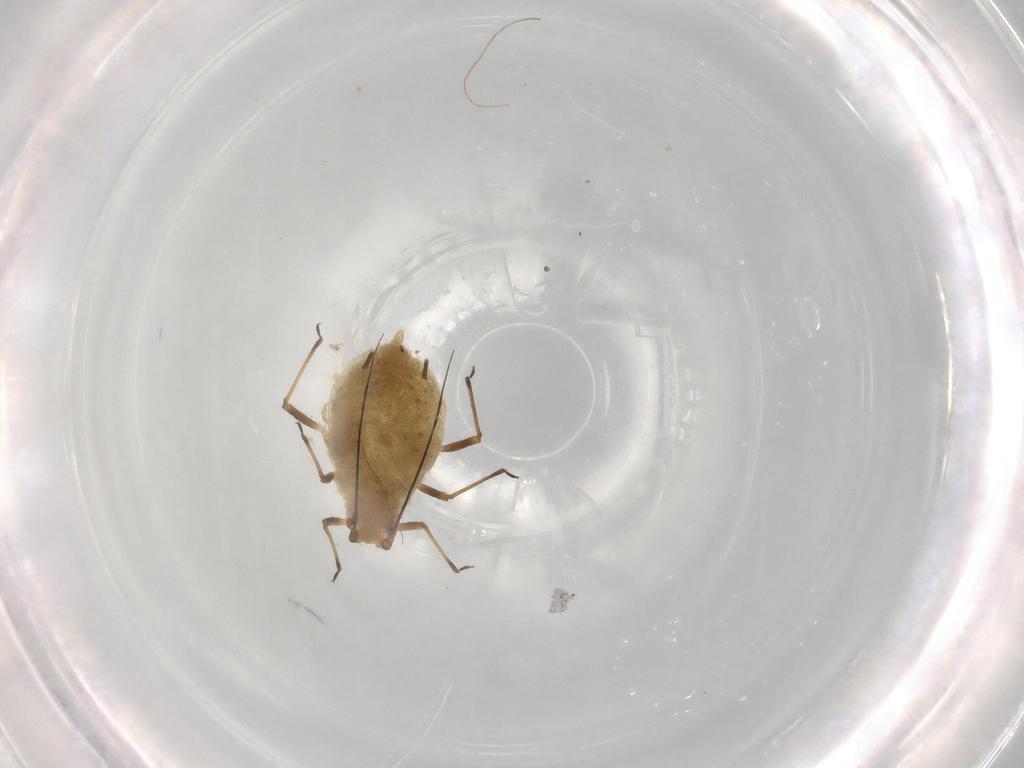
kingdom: Animalia
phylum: Arthropoda
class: Insecta
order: Hemiptera
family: Aphididae
